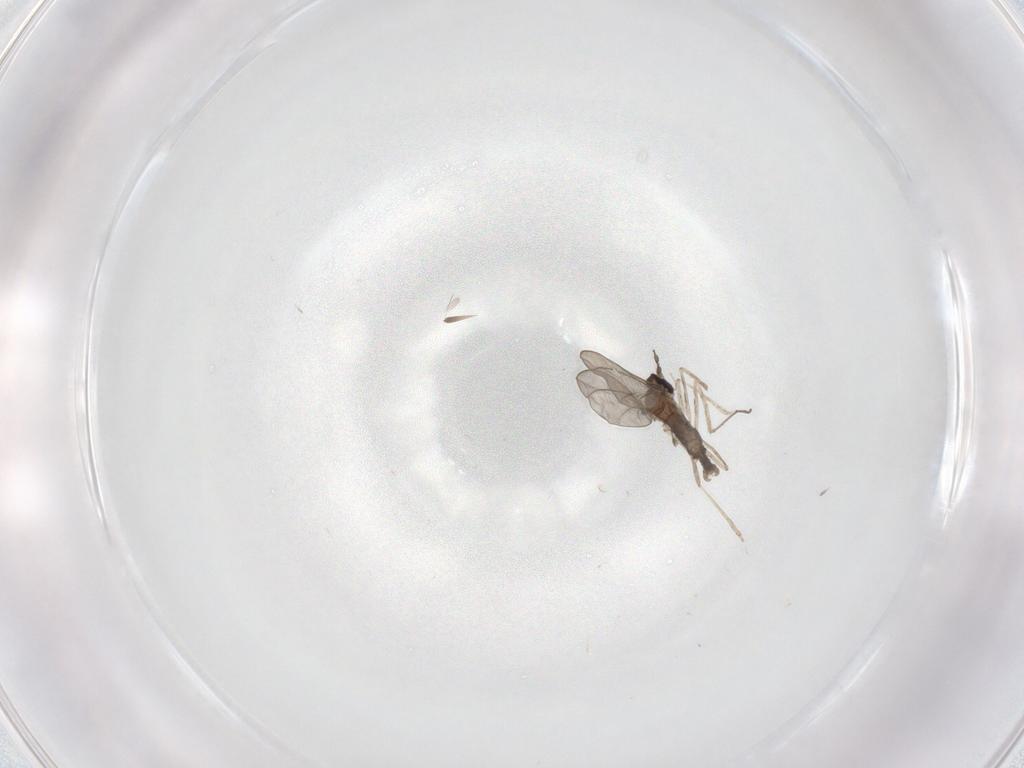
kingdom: Animalia
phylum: Arthropoda
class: Insecta
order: Diptera
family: Cecidomyiidae
